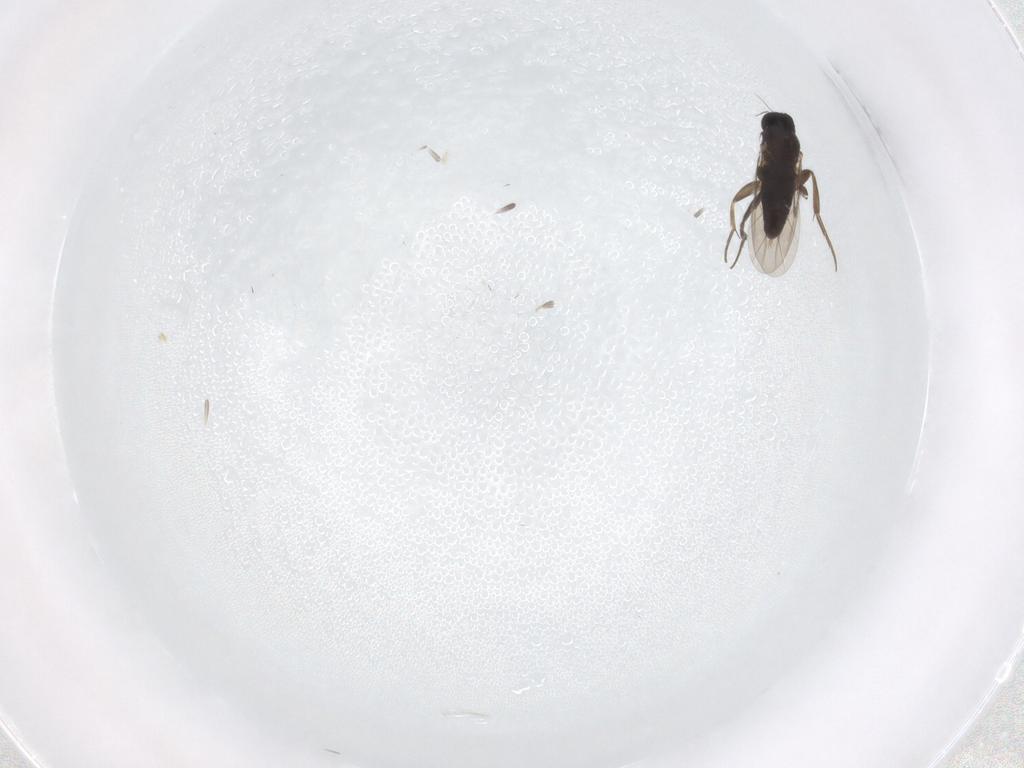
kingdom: Animalia
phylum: Arthropoda
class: Insecta
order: Diptera
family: Phoridae
